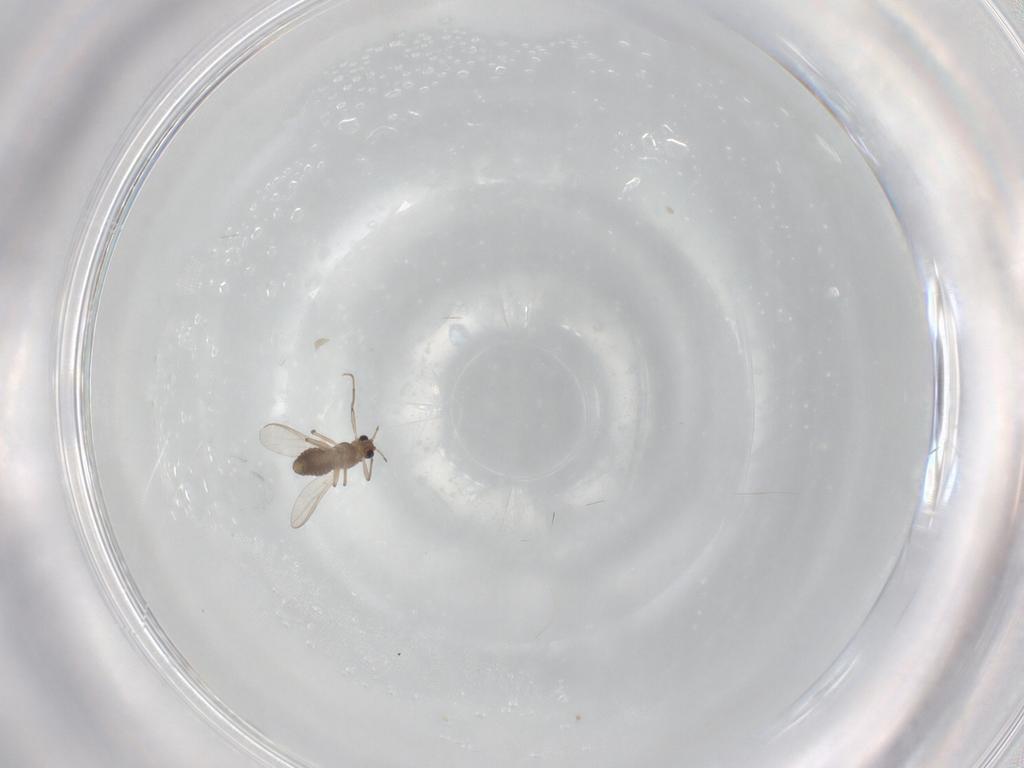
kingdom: Animalia
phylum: Arthropoda
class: Insecta
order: Diptera
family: Chironomidae
